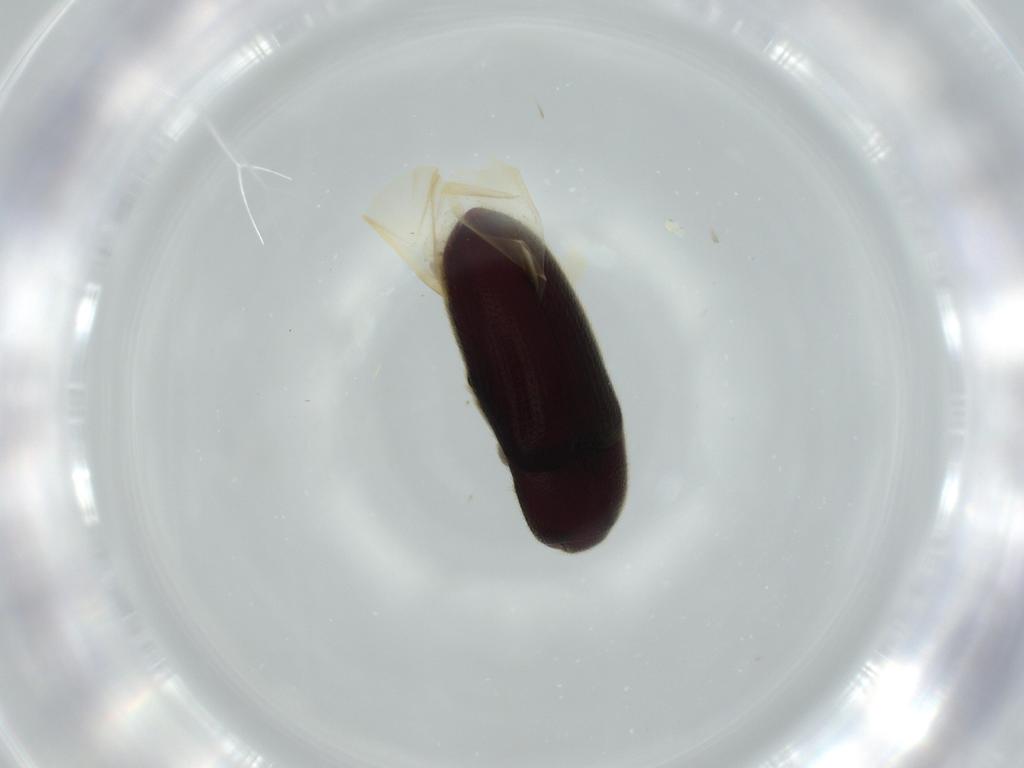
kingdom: Animalia
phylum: Arthropoda
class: Insecta
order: Coleoptera
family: Throscidae
